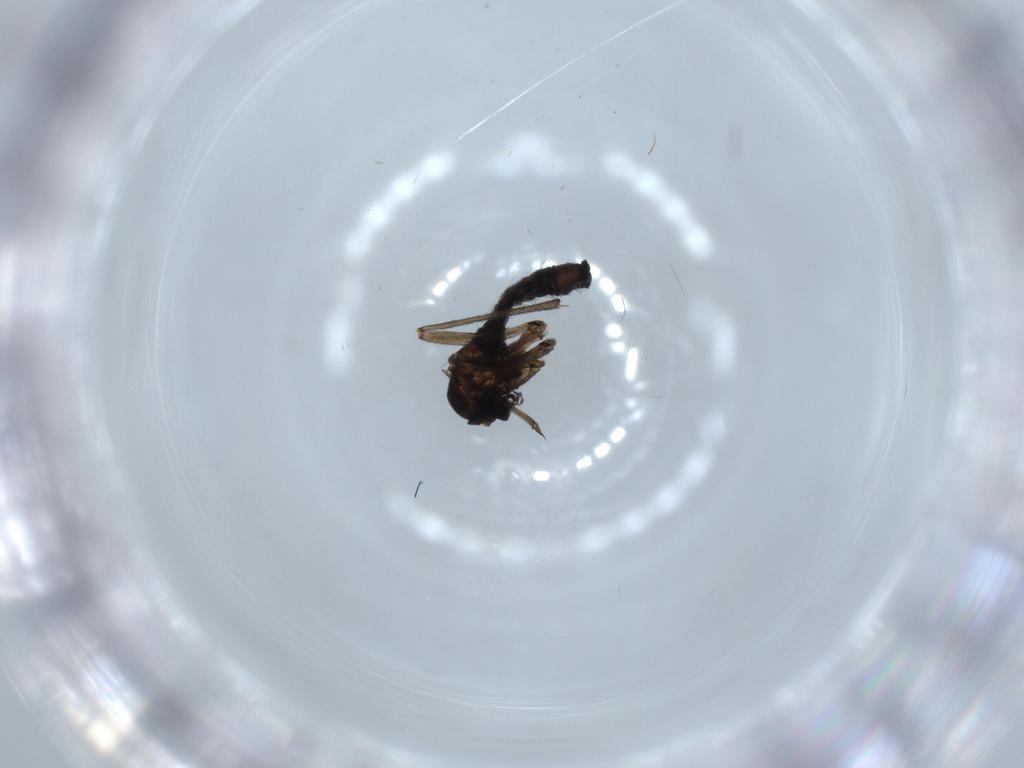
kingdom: Animalia
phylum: Arthropoda
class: Insecta
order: Diptera
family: Sciaridae
